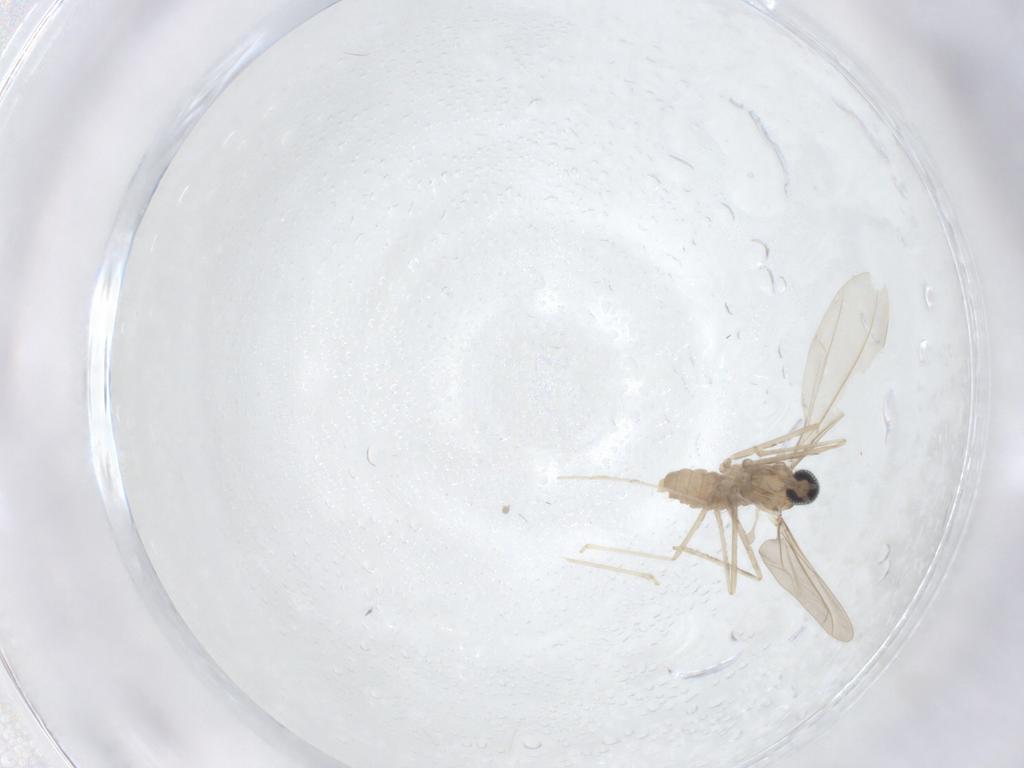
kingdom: Animalia
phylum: Arthropoda
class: Insecta
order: Diptera
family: Cecidomyiidae
